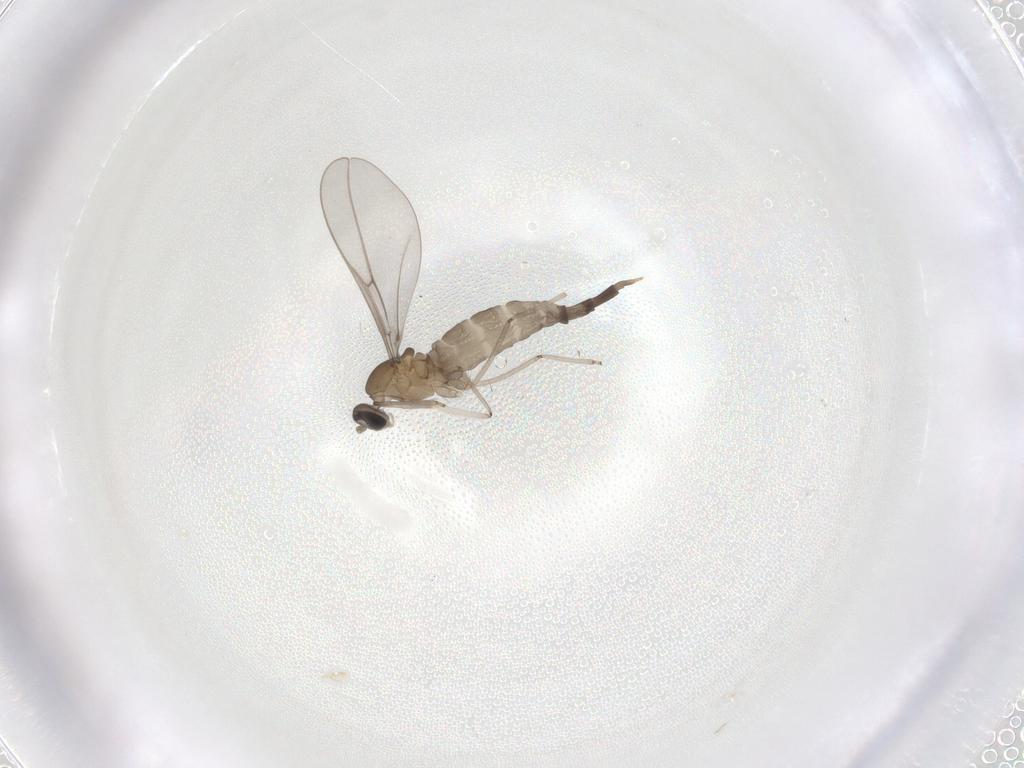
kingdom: Animalia
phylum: Arthropoda
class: Insecta
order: Diptera
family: Cecidomyiidae
